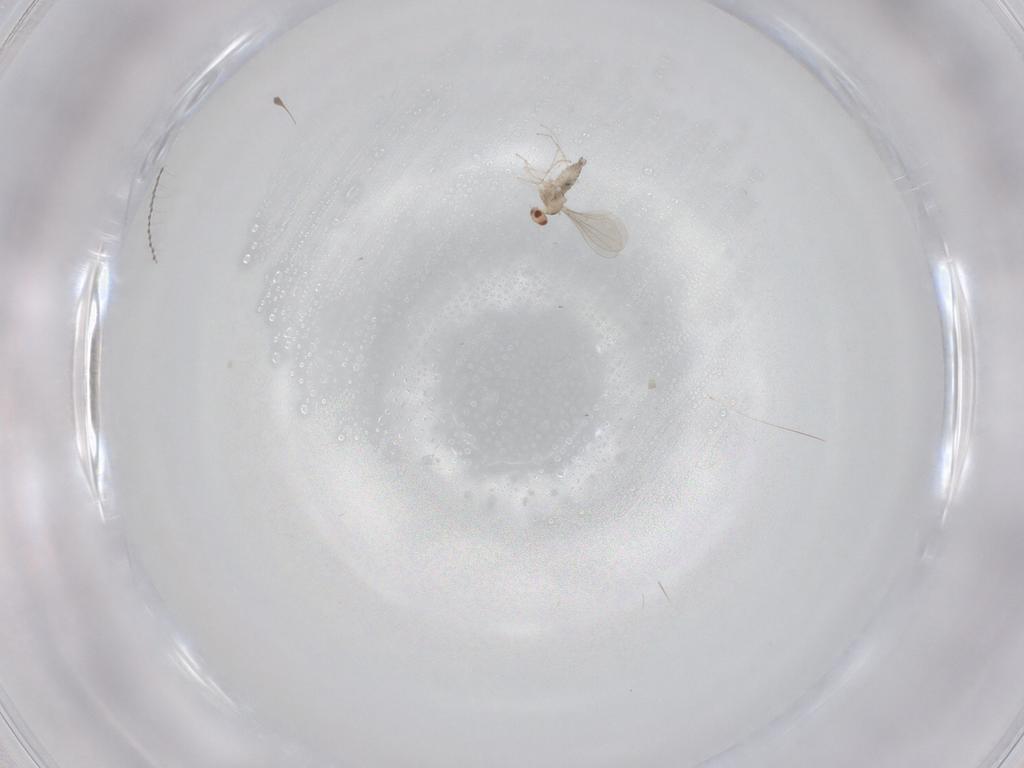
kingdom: Animalia
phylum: Arthropoda
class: Insecta
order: Diptera
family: Cecidomyiidae
